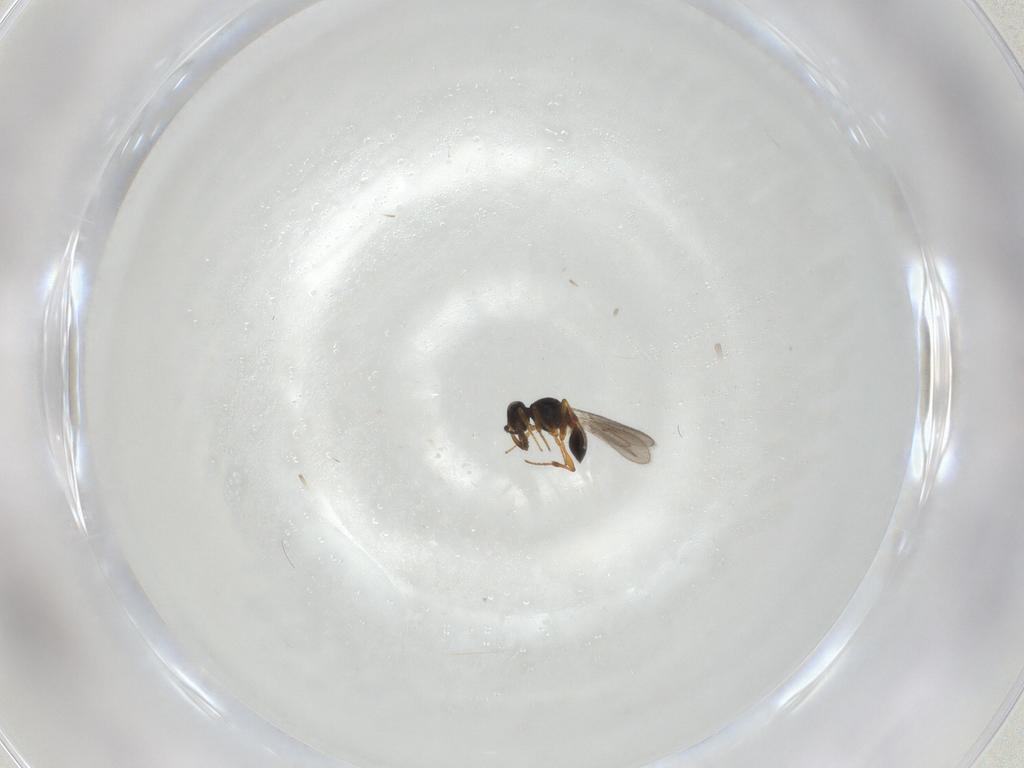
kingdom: Animalia
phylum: Arthropoda
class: Insecta
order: Hymenoptera
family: Platygastridae
